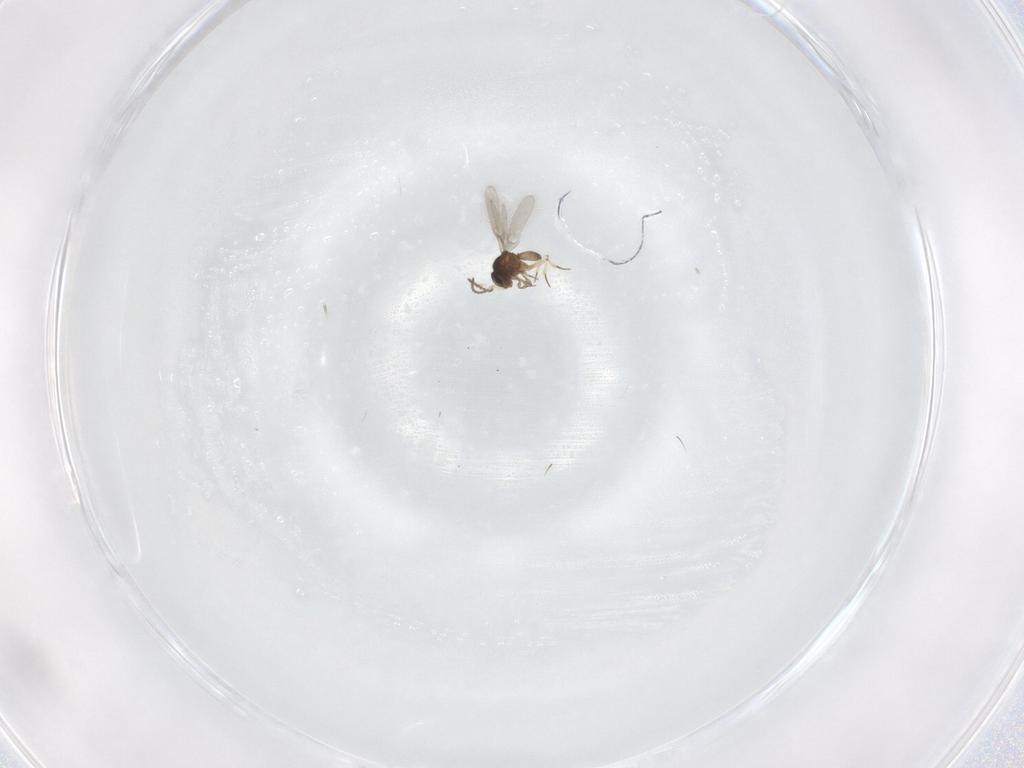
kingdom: Animalia
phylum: Arthropoda
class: Insecta
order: Hymenoptera
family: Scelionidae
